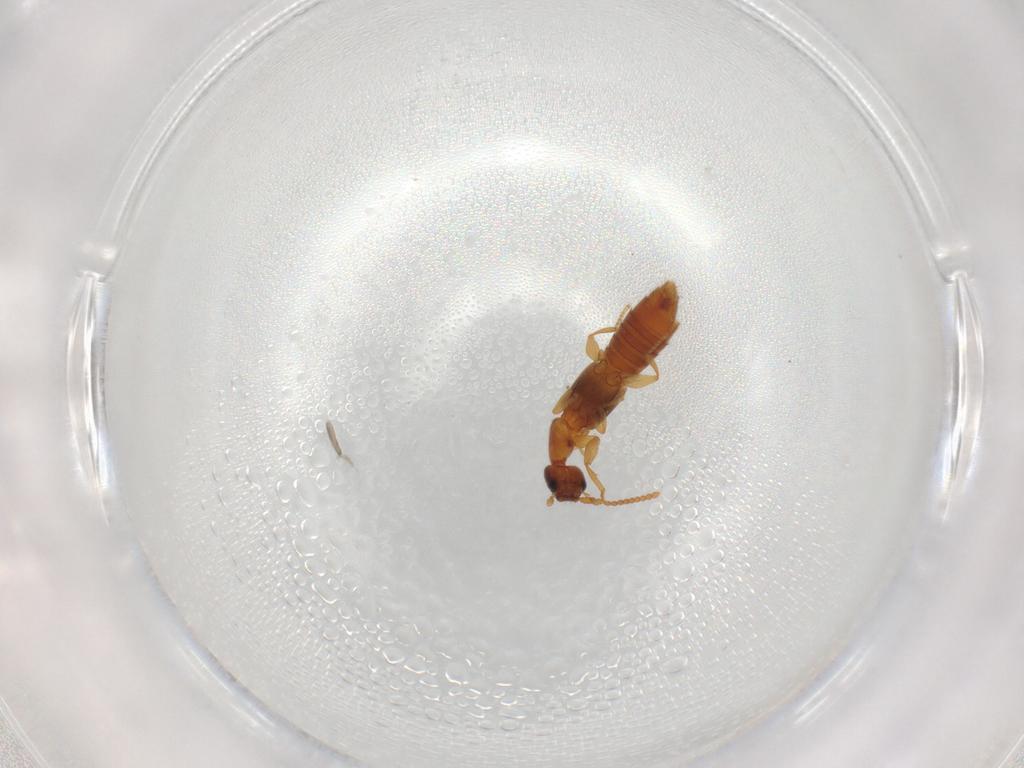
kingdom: Animalia
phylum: Arthropoda
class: Insecta
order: Coleoptera
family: Staphylinidae
